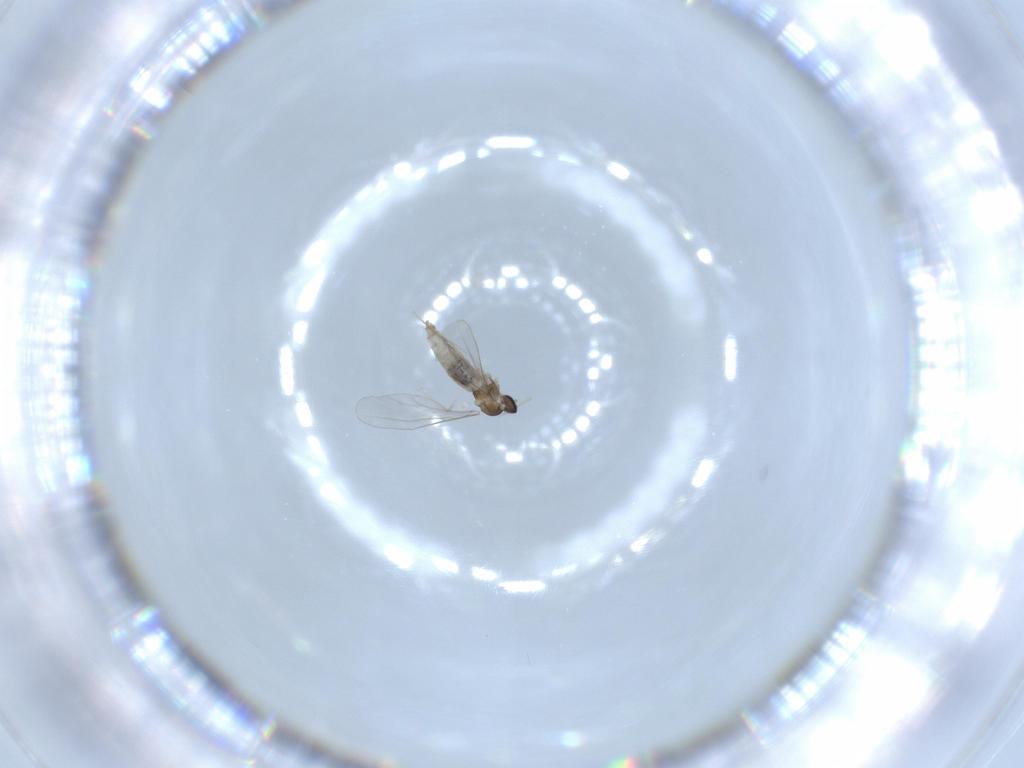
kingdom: Animalia
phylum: Arthropoda
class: Insecta
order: Diptera
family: Cecidomyiidae
